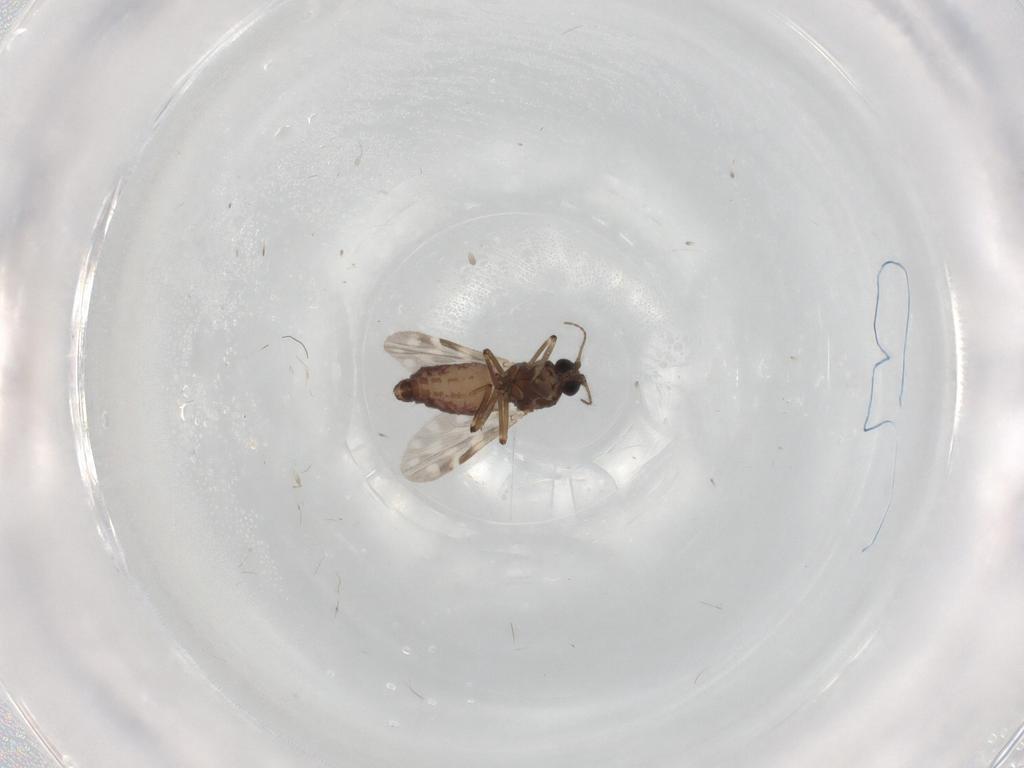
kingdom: Animalia
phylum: Arthropoda
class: Insecta
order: Diptera
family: Ceratopogonidae
